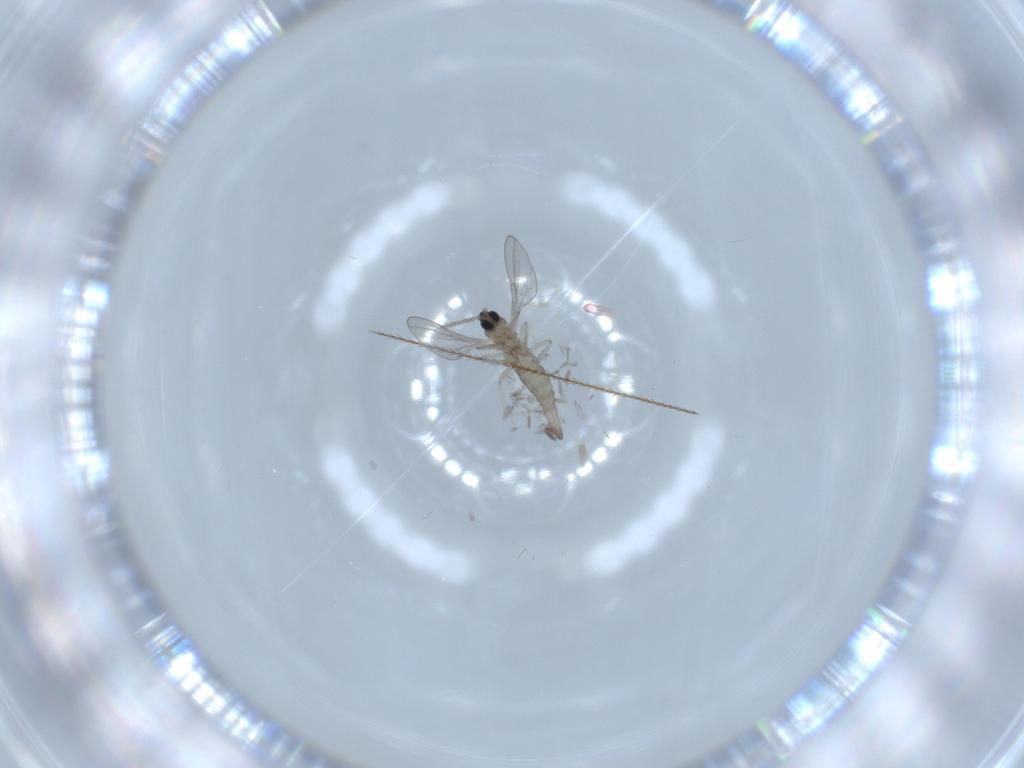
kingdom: Animalia
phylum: Arthropoda
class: Insecta
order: Diptera
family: Cecidomyiidae
